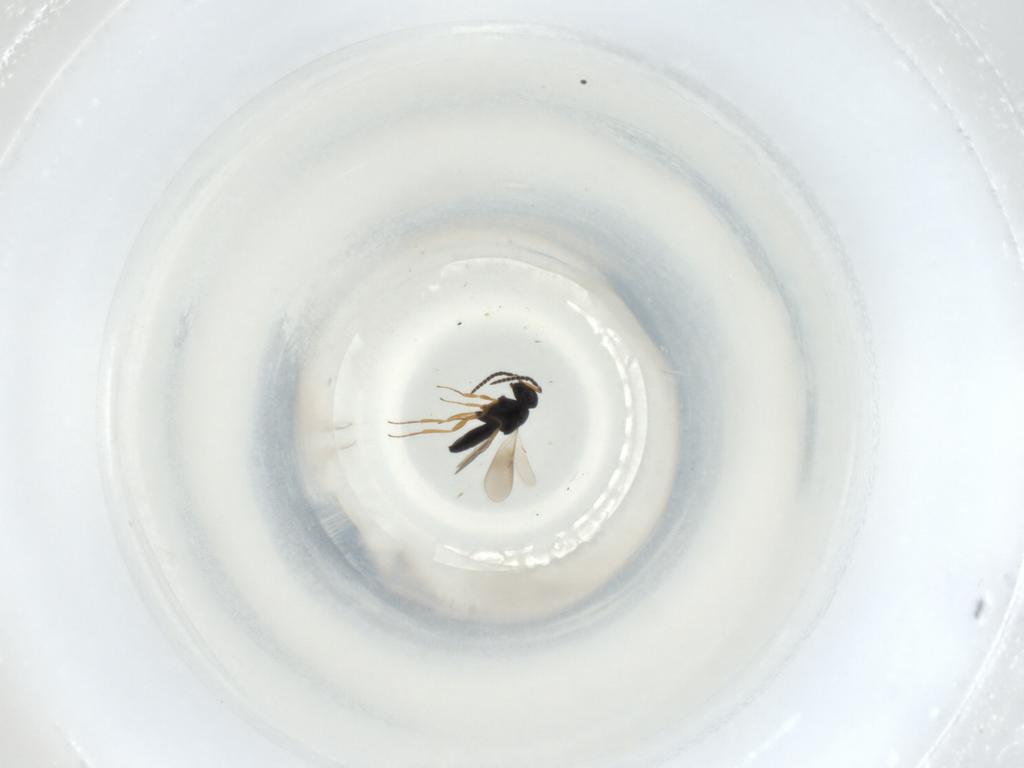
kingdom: Animalia
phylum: Arthropoda
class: Insecta
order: Hymenoptera
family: Scelionidae
